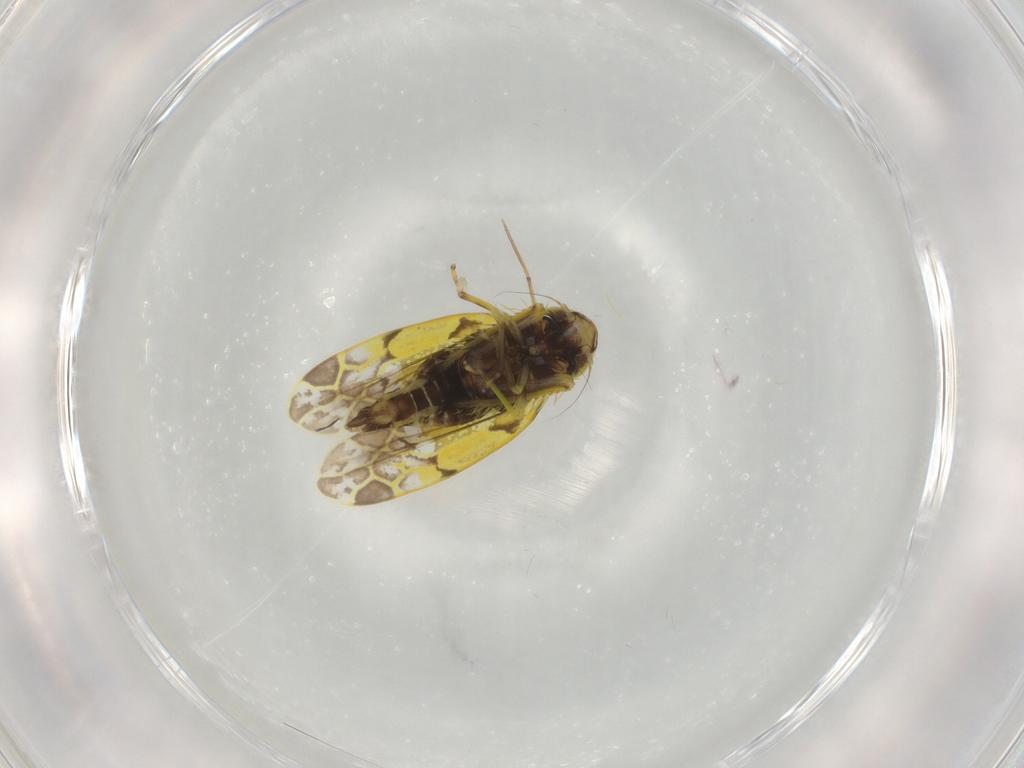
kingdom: Animalia
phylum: Arthropoda
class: Insecta
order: Hemiptera
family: Cicadellidae
